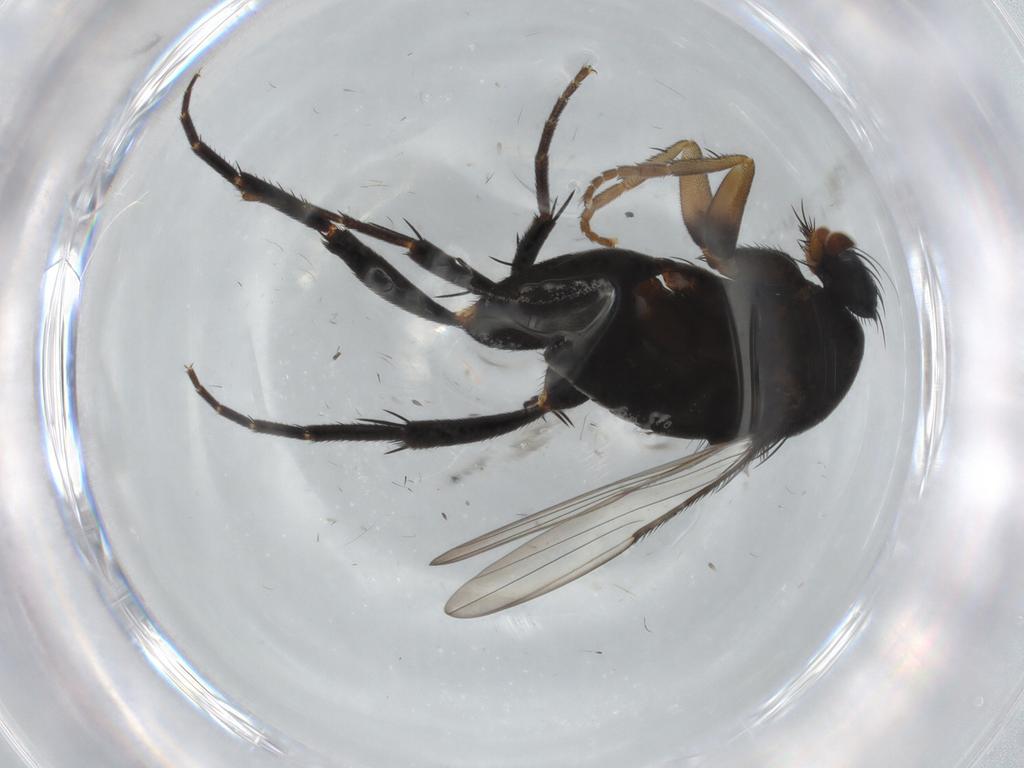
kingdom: Animalia
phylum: Arthropoda
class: Insecta
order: Diptera
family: Phoridae
